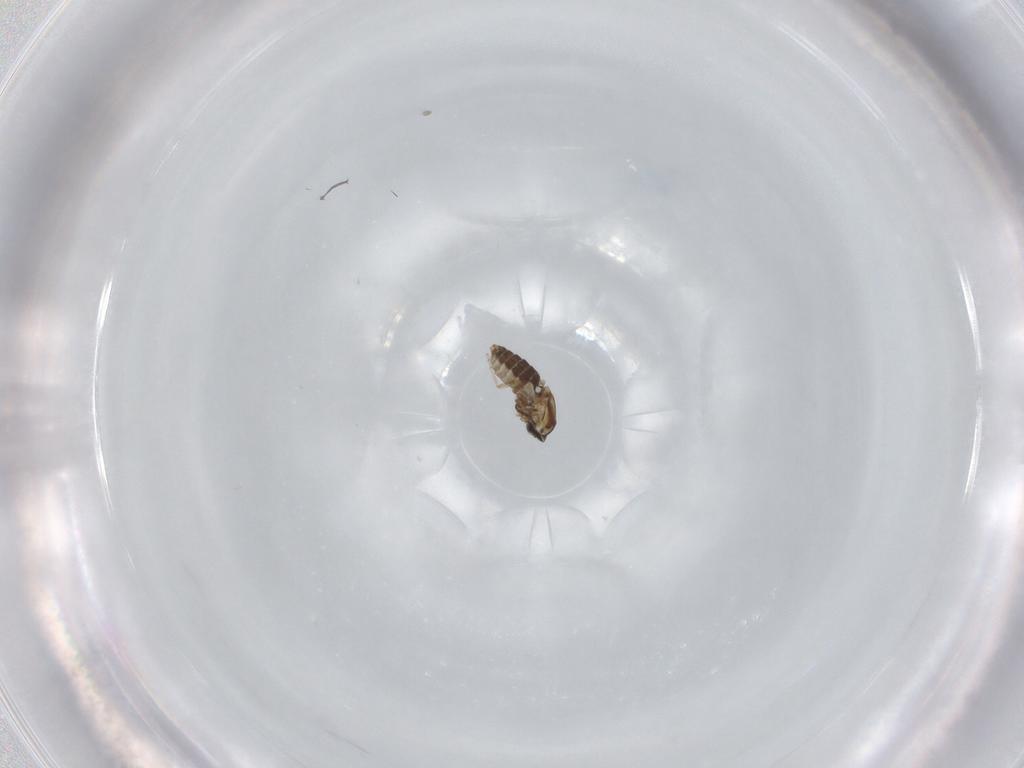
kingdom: Animalia
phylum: Arthropoda
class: Insecta
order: Diptera
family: Ceratopogonidae
